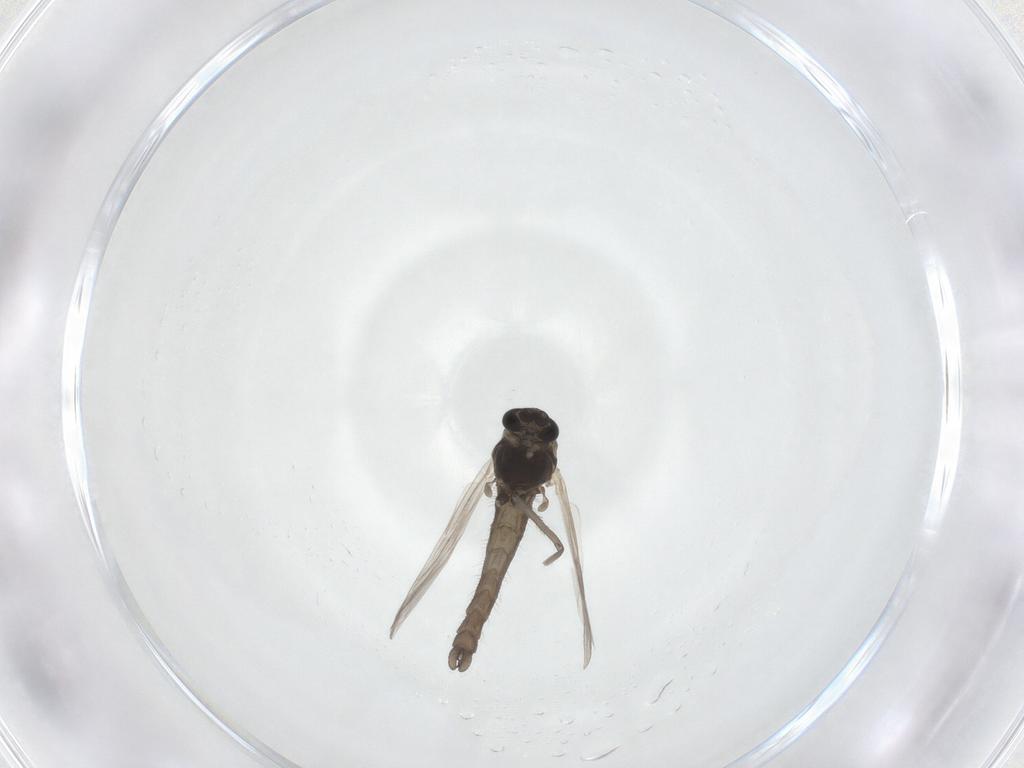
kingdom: Animalia
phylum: Arthropoda
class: Insecta
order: Diptera
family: Chironomidae
